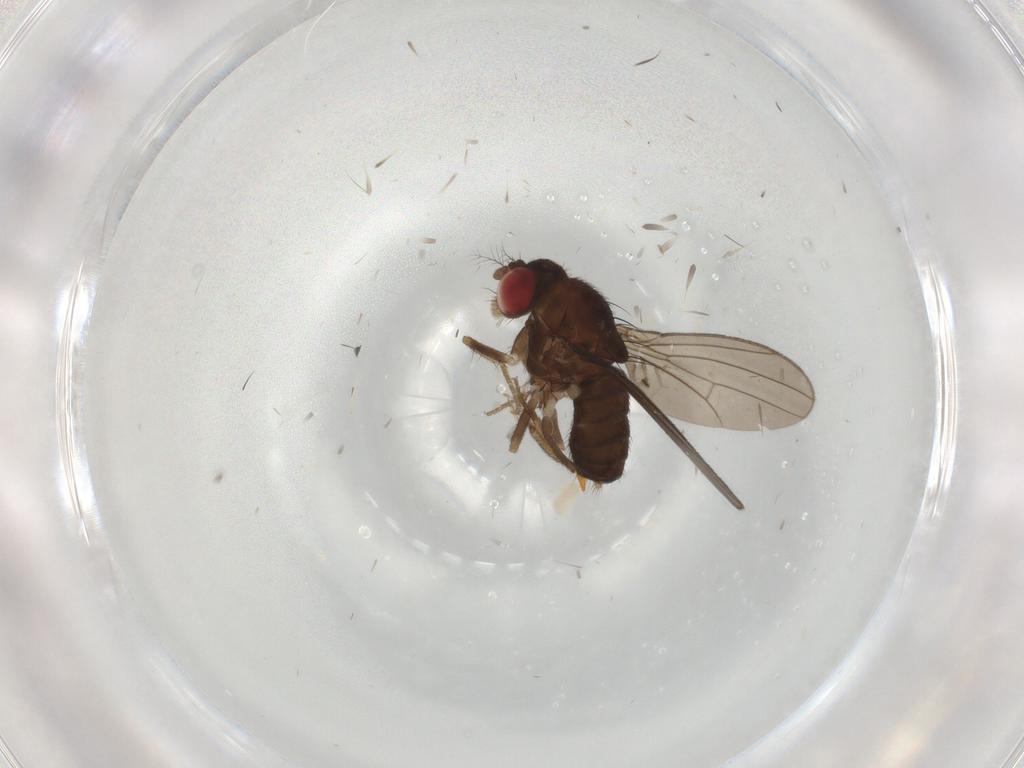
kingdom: Animalia
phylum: Arthropoda
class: Insecta
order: Diptera
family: Drosophilidae
